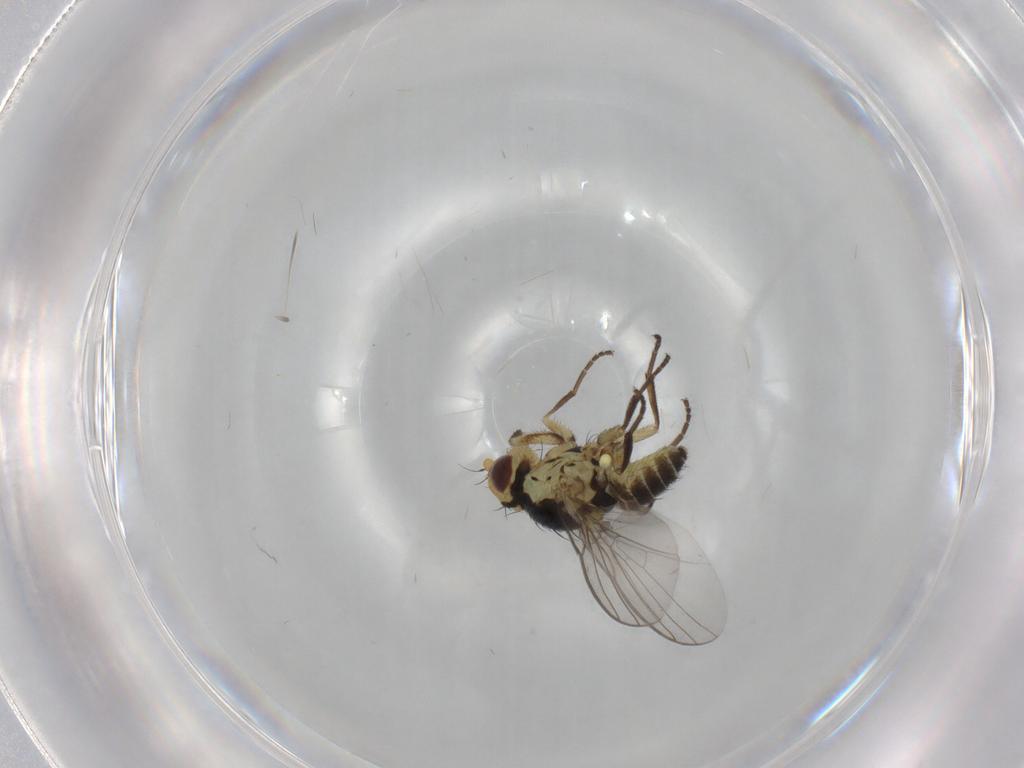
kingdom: Animalia
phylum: Arthropoda
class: Insecta
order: Diptera
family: Agromyzidae
